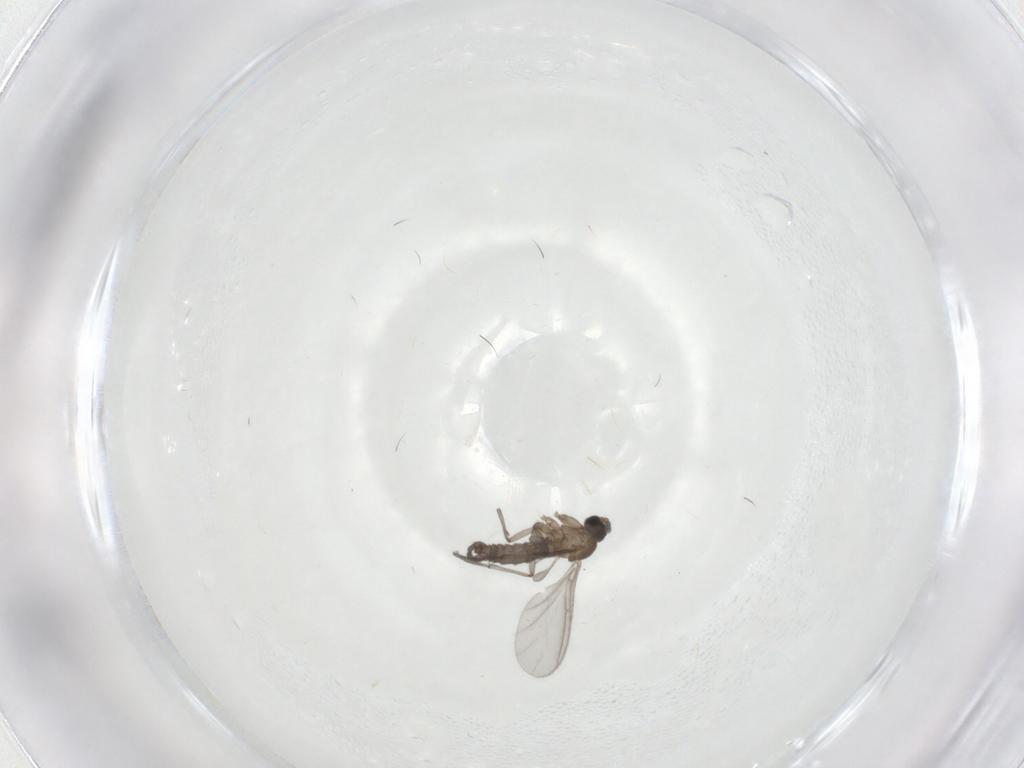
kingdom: Animalia
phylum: Arthropoda
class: Insecta
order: Diptera
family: Sciaridae
